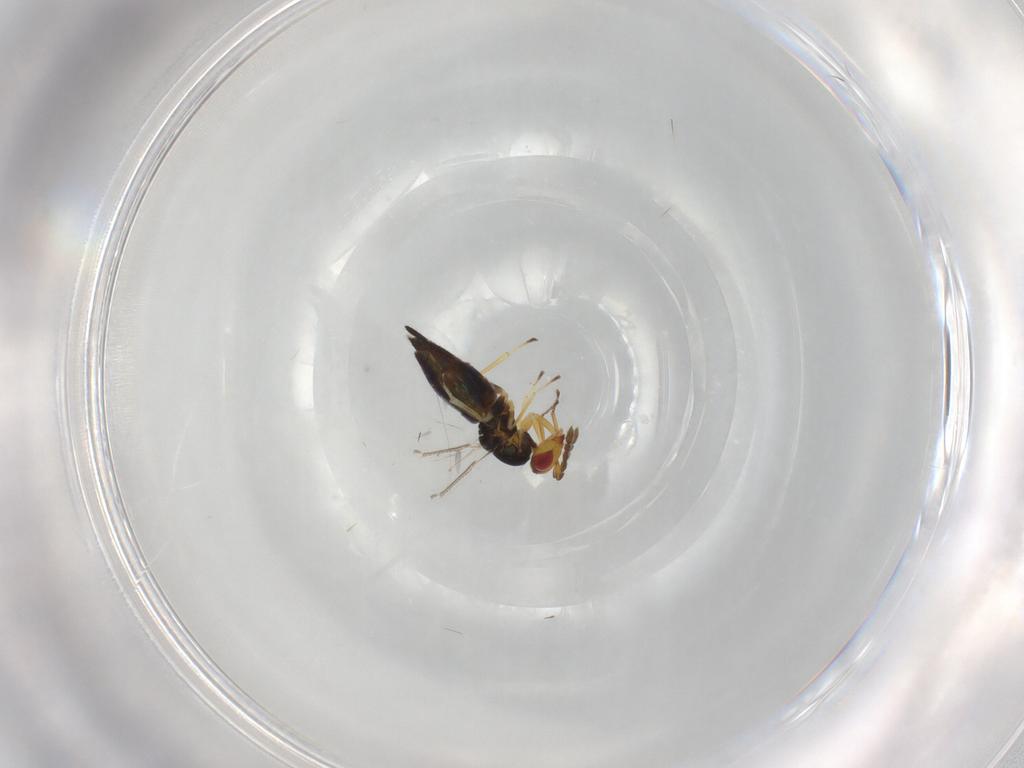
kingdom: Animalia
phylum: Arthropoda
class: Insecta
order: Hymenoptera
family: Eulophidae
